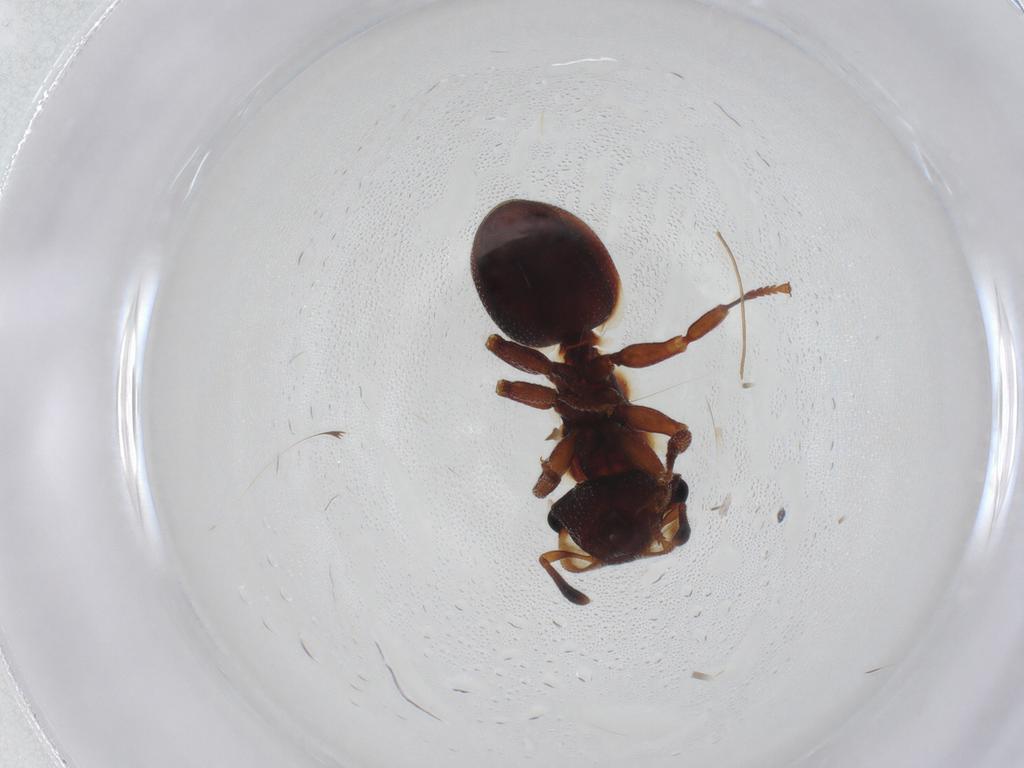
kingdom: Animalia
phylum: Arthropoda
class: Insecta
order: Hymenoptera
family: Formicidae
